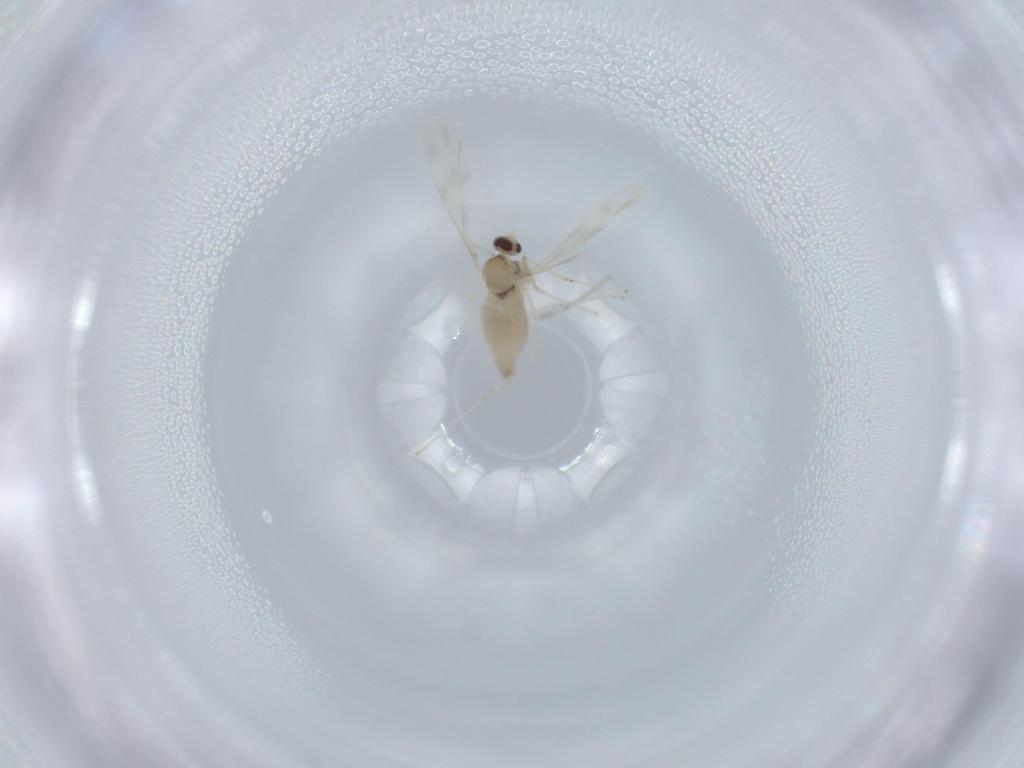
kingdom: Animalia
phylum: Arthropoda
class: Insecta
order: Diptera
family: Cecidomyiidae
